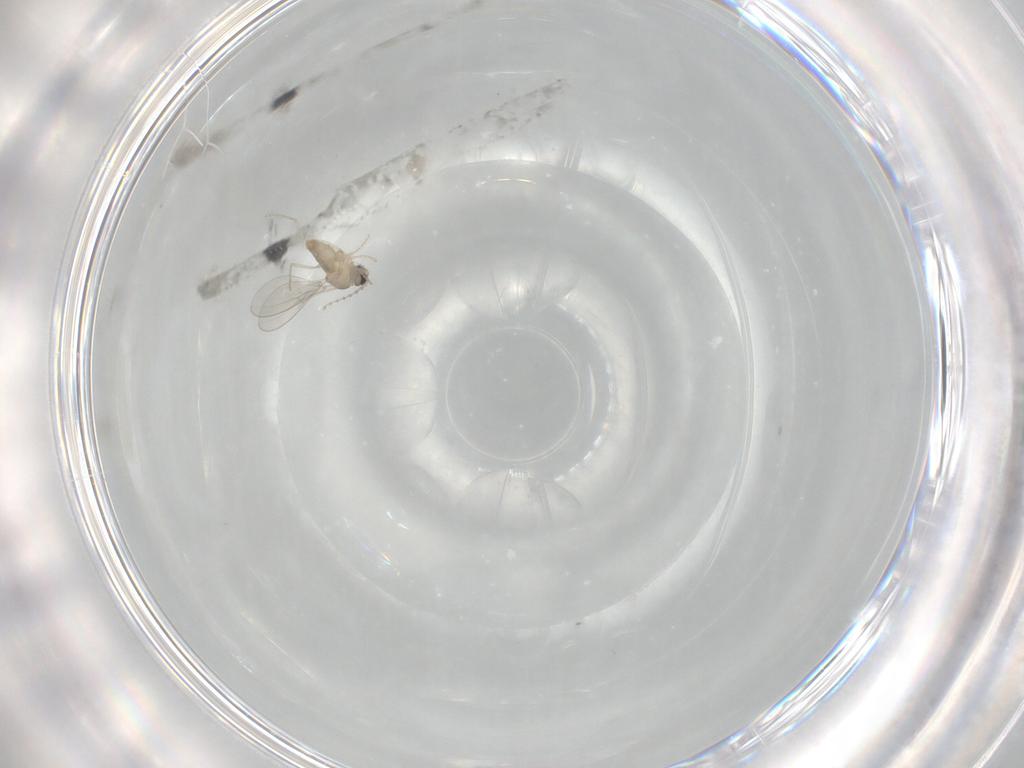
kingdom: Animalia
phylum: Arthropoda
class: Insecta
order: Diptera
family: Cecidomyiidae
